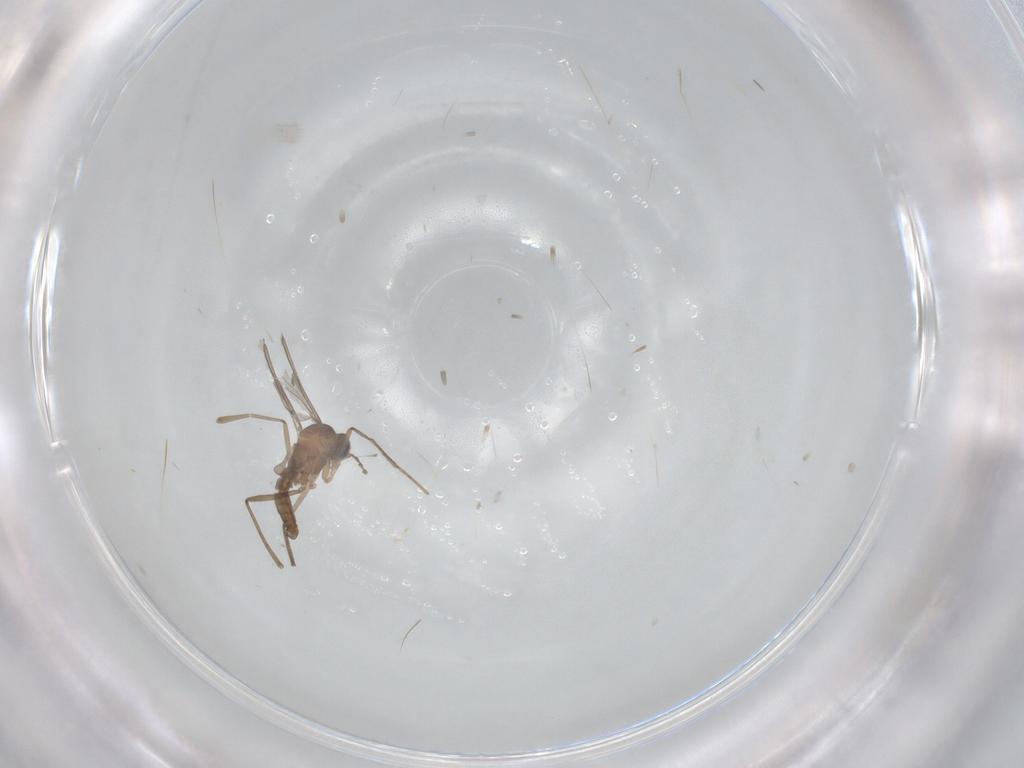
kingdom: Animalia
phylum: Arthropoda
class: Insecta
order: Diptera
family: Cecidomyiidae
